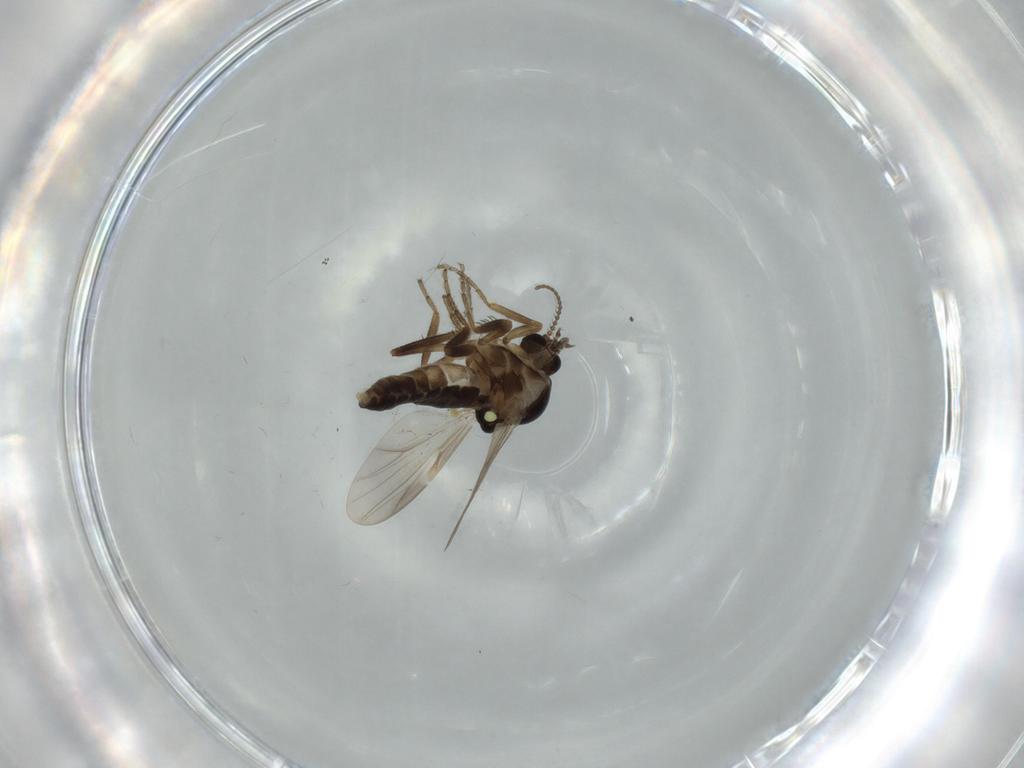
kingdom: Animalia
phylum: Arthropoda
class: Insecta
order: Diptera
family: Ceratopogonidae
